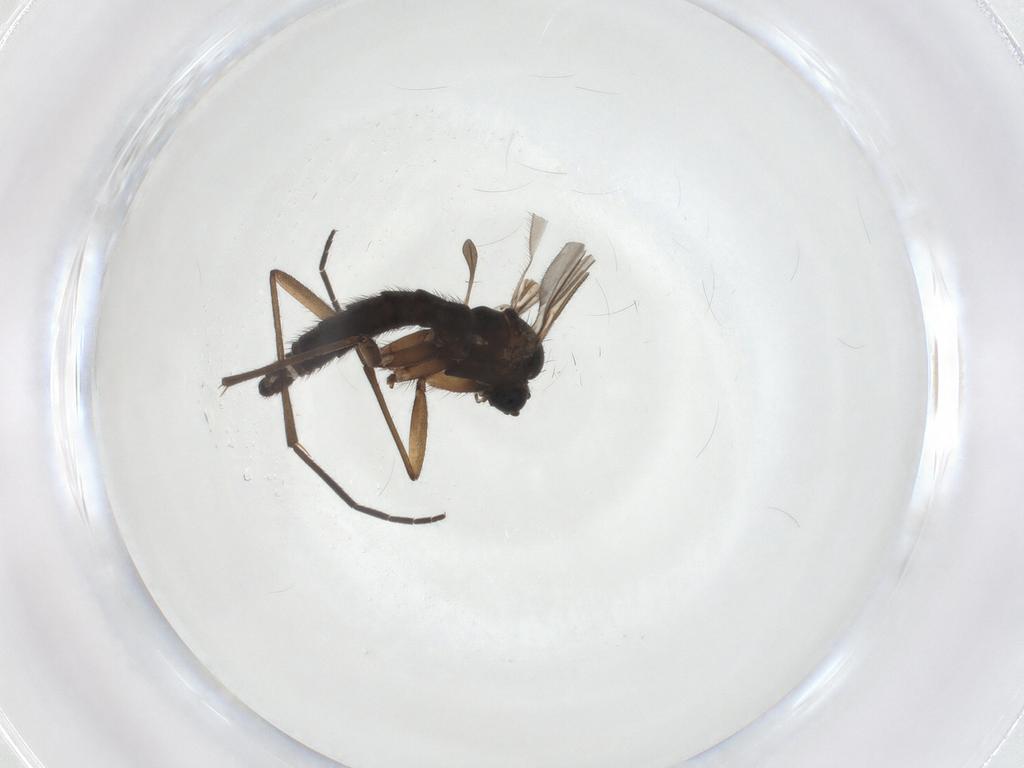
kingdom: Animalia
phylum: Arthropoda
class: Insecta
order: Diptera
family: Sciaridae
